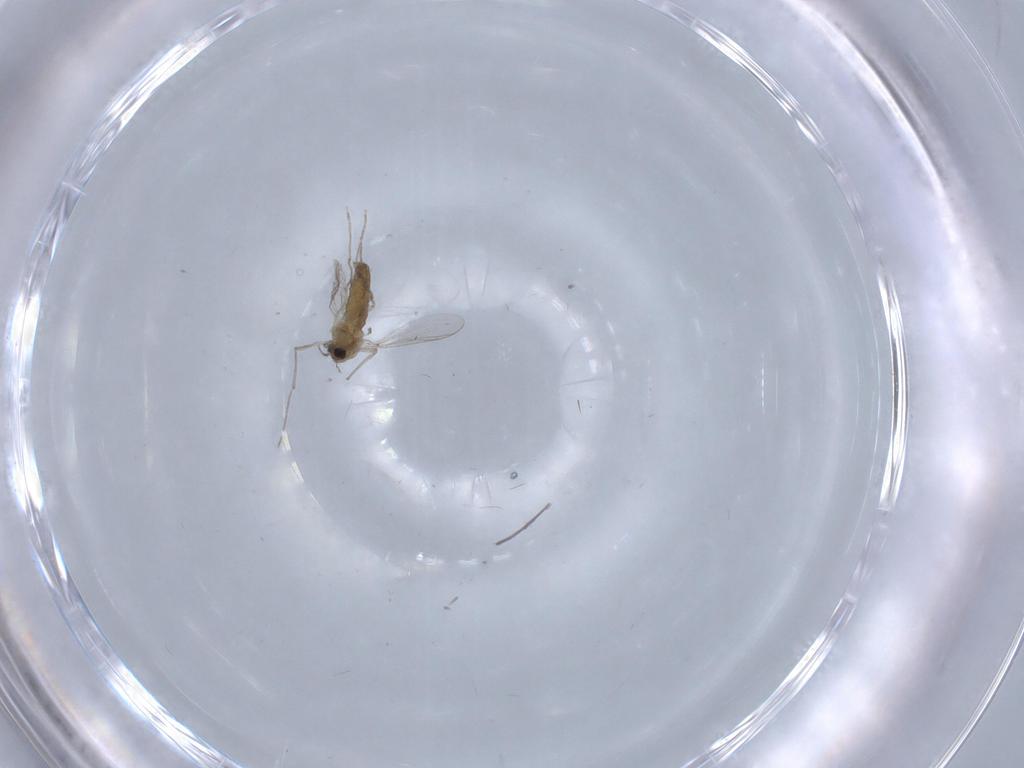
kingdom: Animalia
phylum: Arthropoda
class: Insecta
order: Diptera
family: Chironomidae
